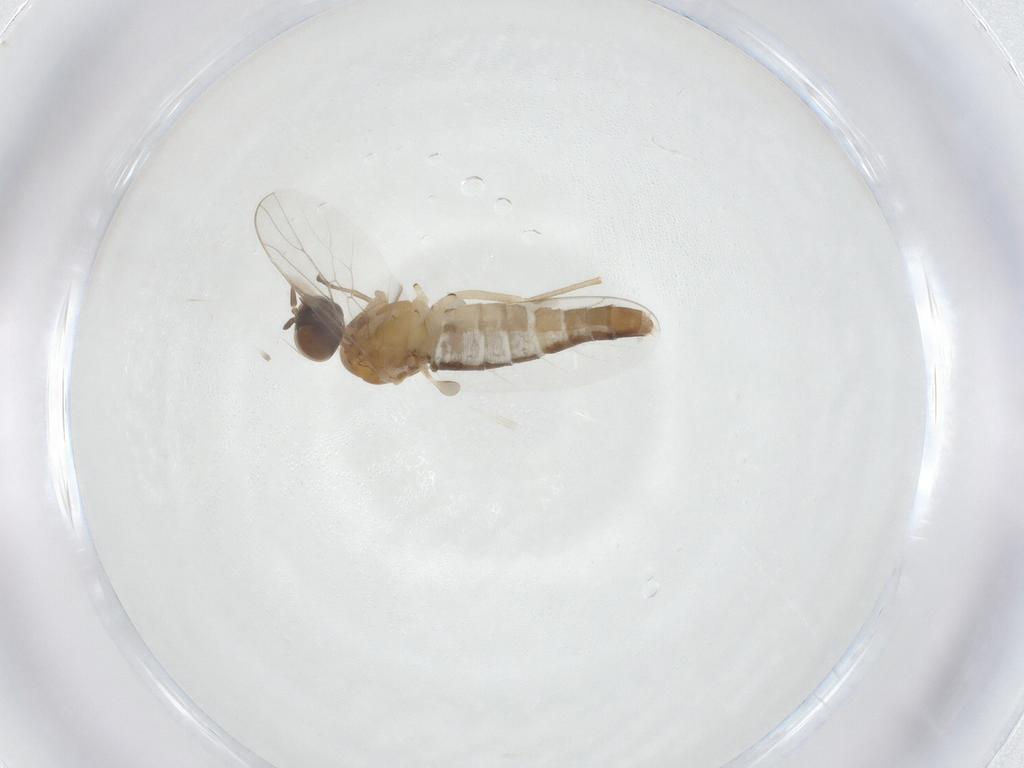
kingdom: Animalia
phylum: Arthropoda
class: Insecta
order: Diptera
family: Scenopinidae
